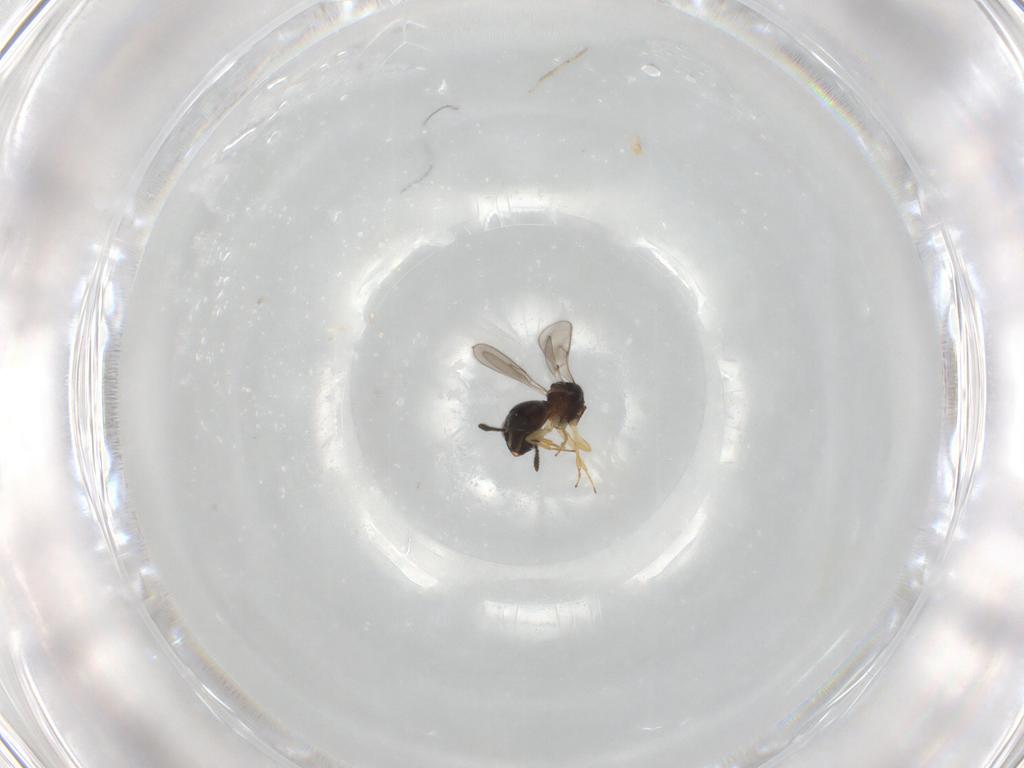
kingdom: Animalia
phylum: Arthropoda
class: Insecta
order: Hymenoptera
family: Scelionidae
